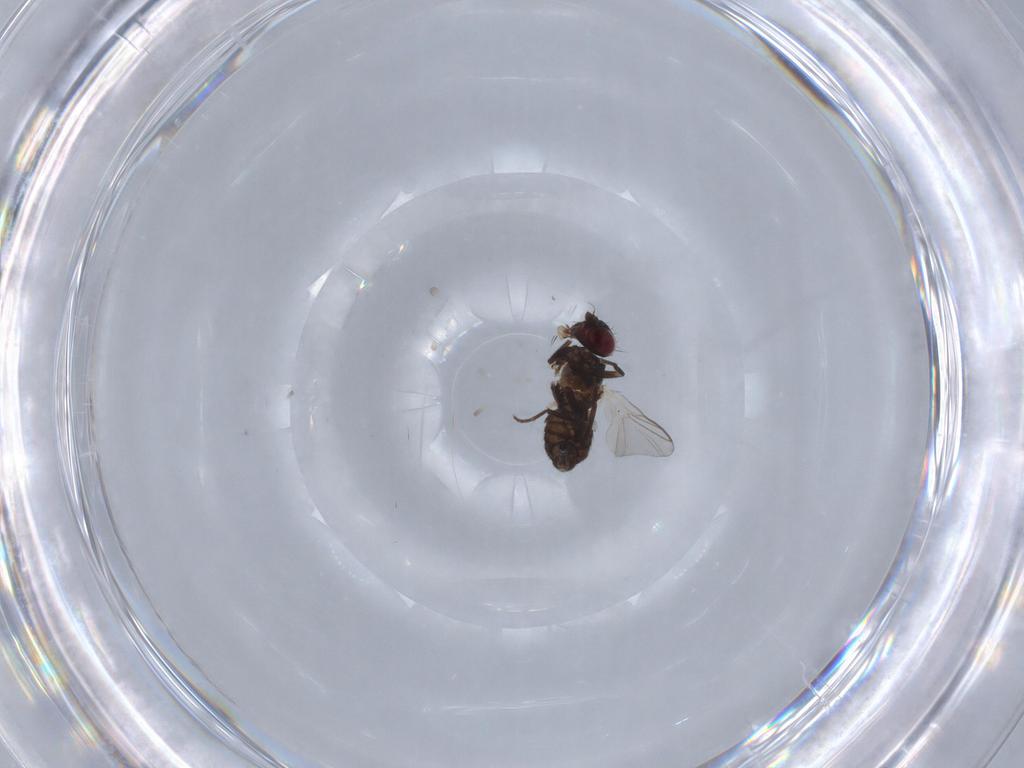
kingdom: Animalia
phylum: Arthropoda
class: Insecta
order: Diptera
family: Agromyzidae
